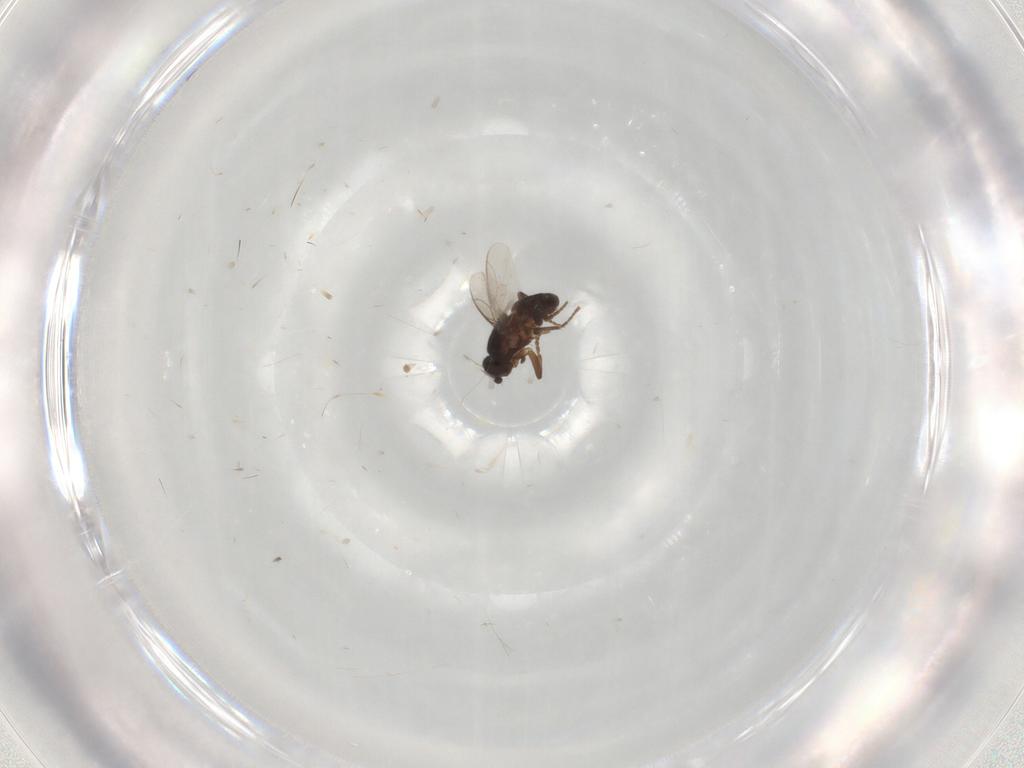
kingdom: Animalia
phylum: Arthropoda
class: Insecta
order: Diptera
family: Sphaeroceridae
